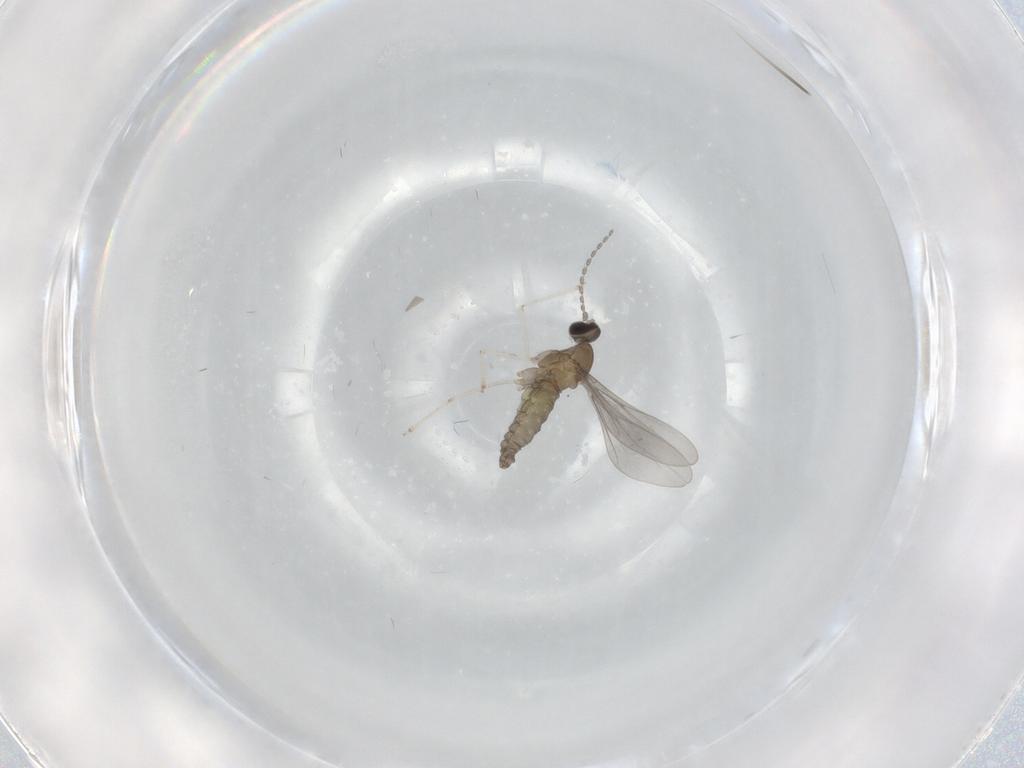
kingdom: Animalia
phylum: Arthropoda
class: Insecta
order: Diptera
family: Cecidomyiidae
